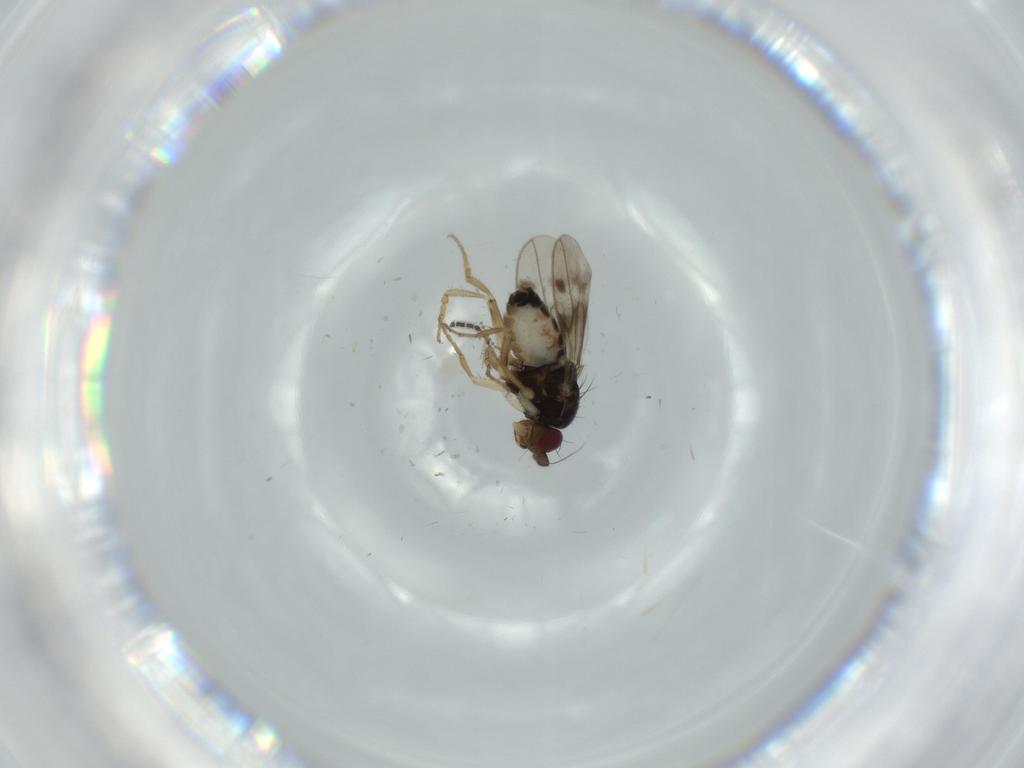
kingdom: Animalia
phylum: Arthropoda
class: Insecta
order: Diptera
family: Sphaeroceridae
